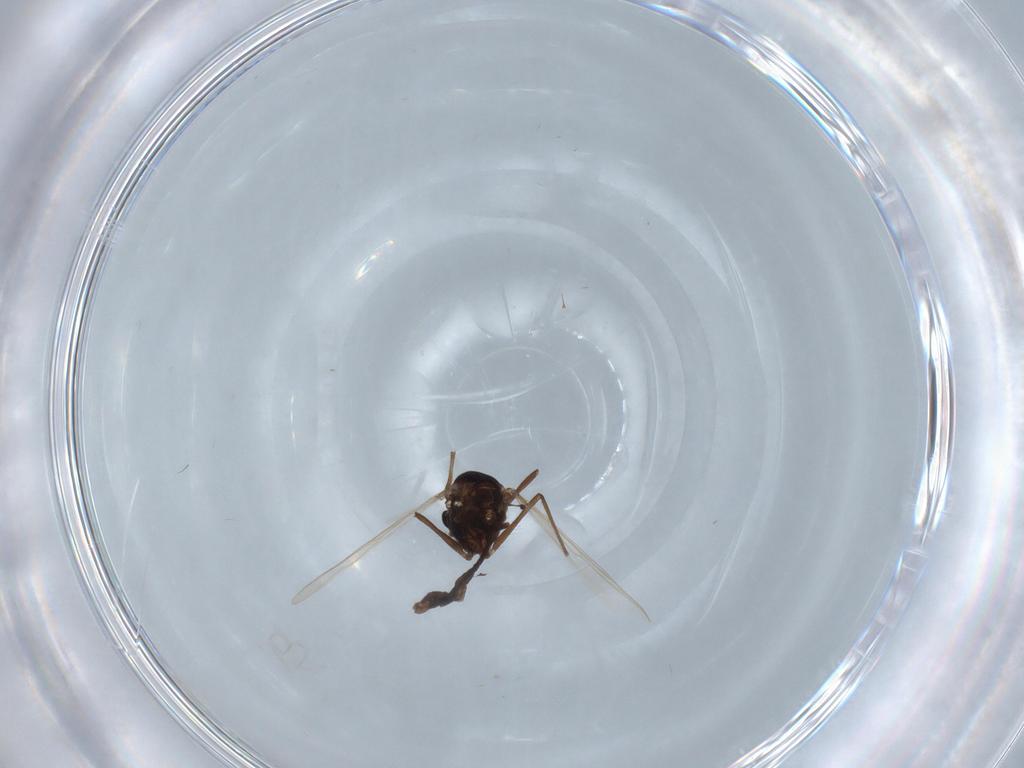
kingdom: Animalia
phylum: Arthropoda
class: Insecta
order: Diptera
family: Chironomidae
